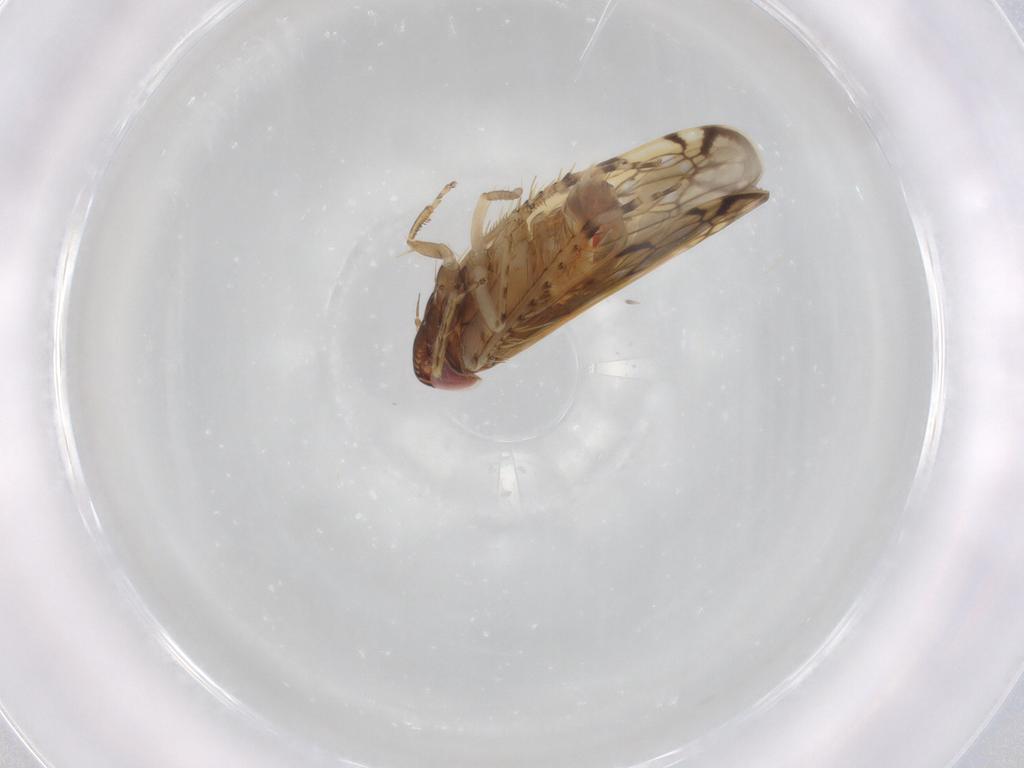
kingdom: Animalia
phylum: Arthropoda
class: Insecta
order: Hemiptera
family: Cicadellidae
